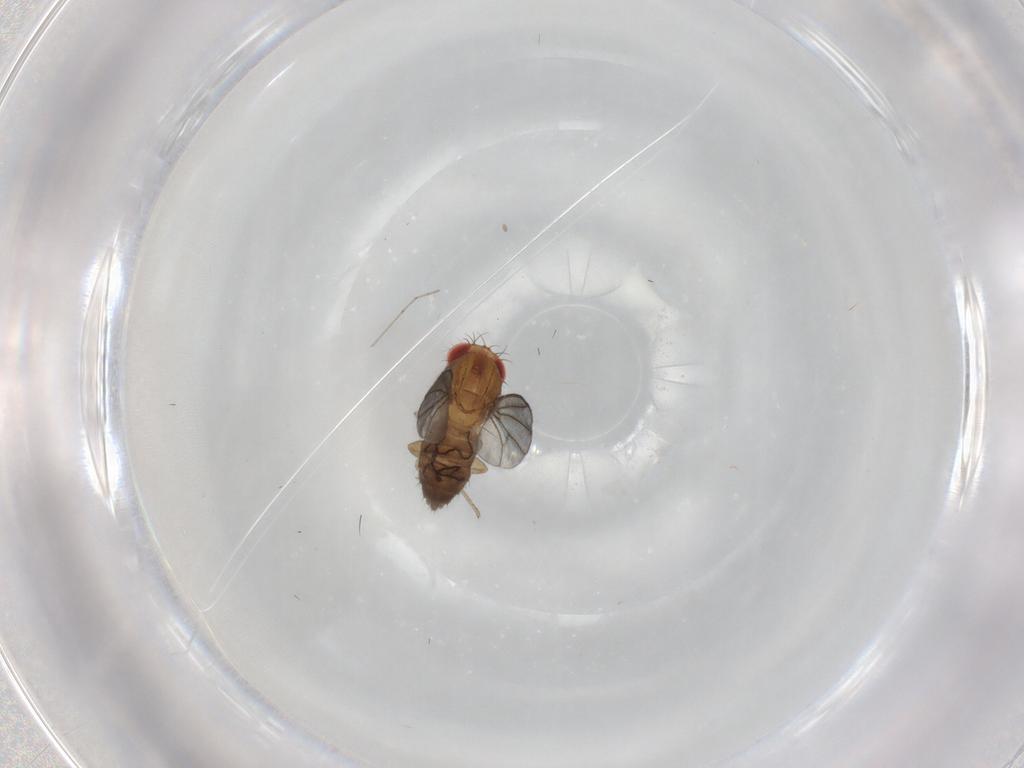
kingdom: Animalia
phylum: Arthropoda
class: Insecta
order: Diptera
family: Drosophilidae
